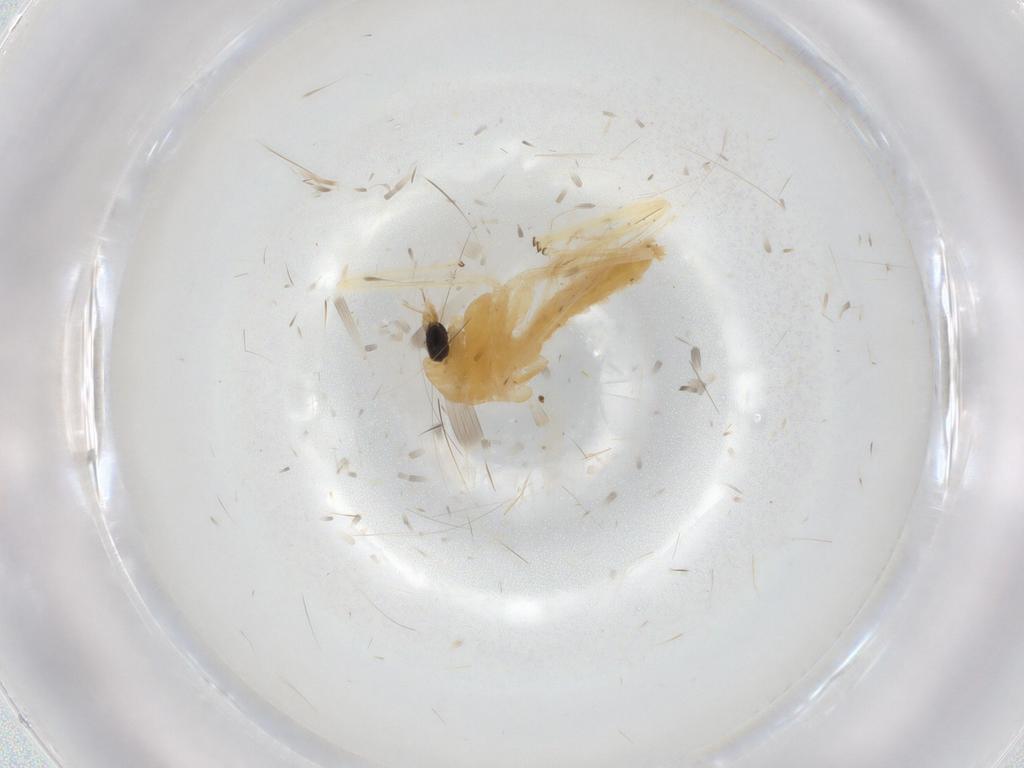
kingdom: Animalia
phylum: Arthropoda
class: Insecta
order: Diptera
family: Chironomidae
